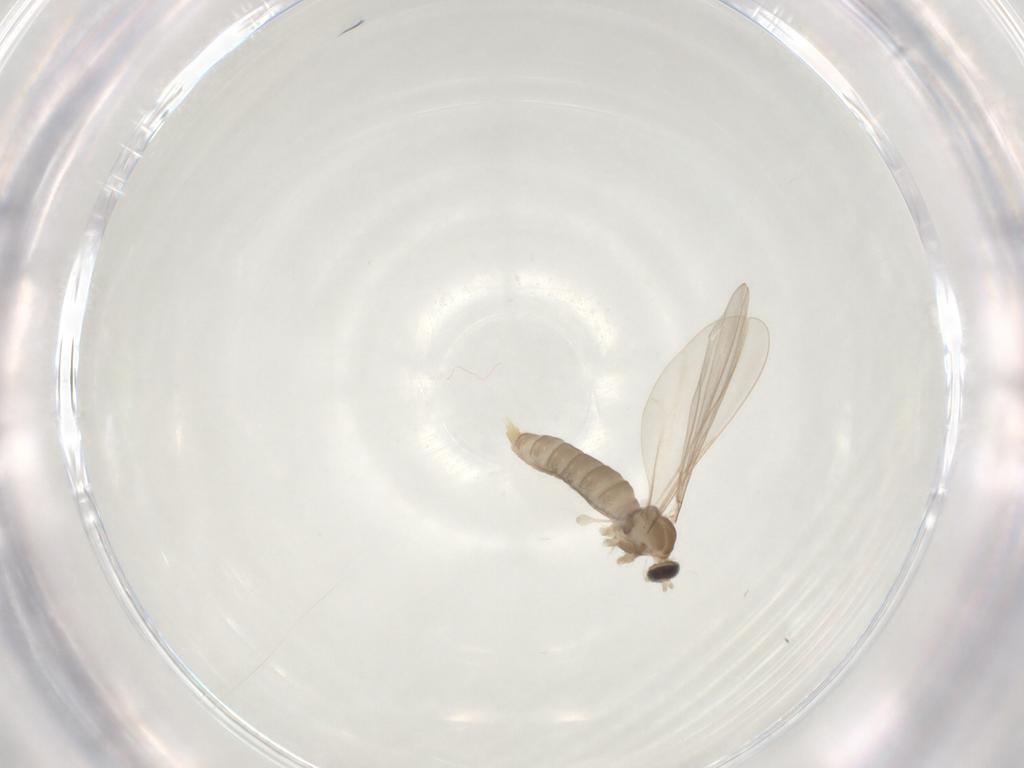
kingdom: Animalia
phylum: Arthropoda
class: Insecta
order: Diptera
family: Cecidomyiidae
